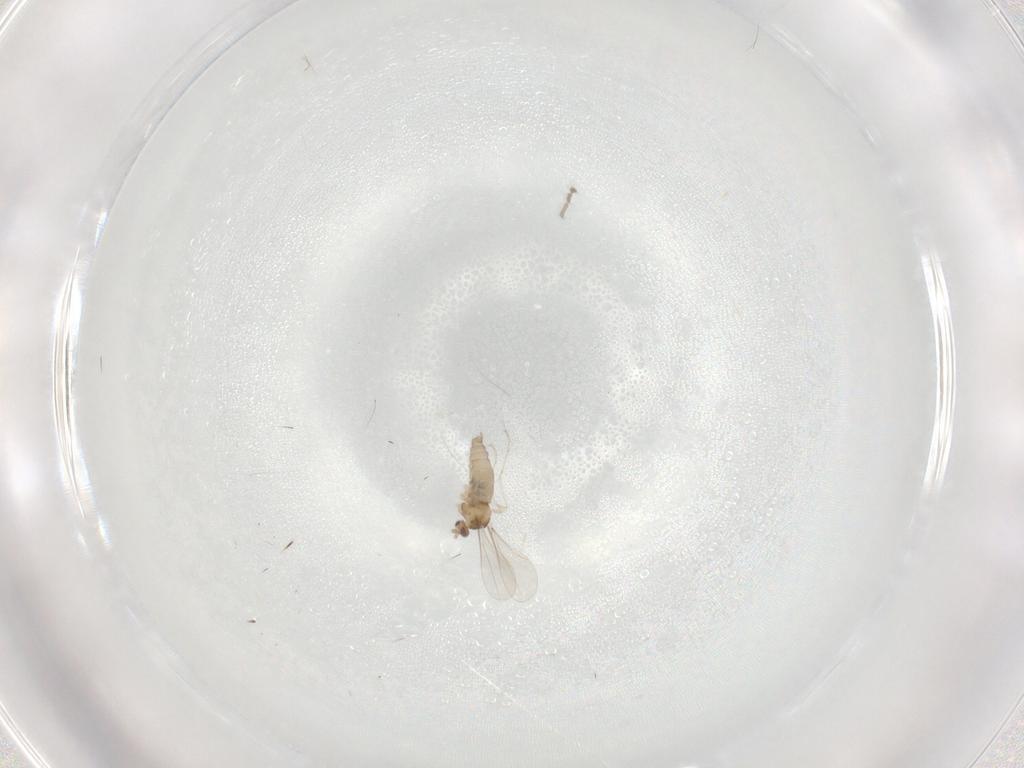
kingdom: Animalia
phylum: Arthropoda
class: Insecta
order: Diptera
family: Cecidomyiidae
